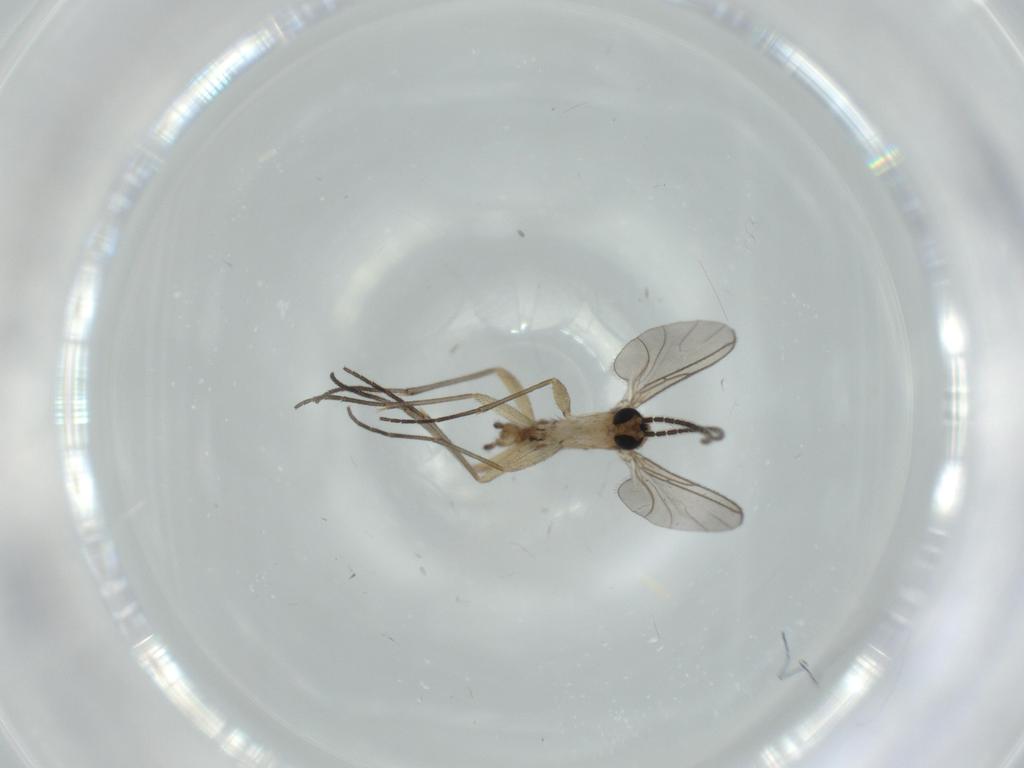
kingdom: Animalia
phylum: Arthropoda
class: Insecta
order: Diptera
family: Sciaridae
